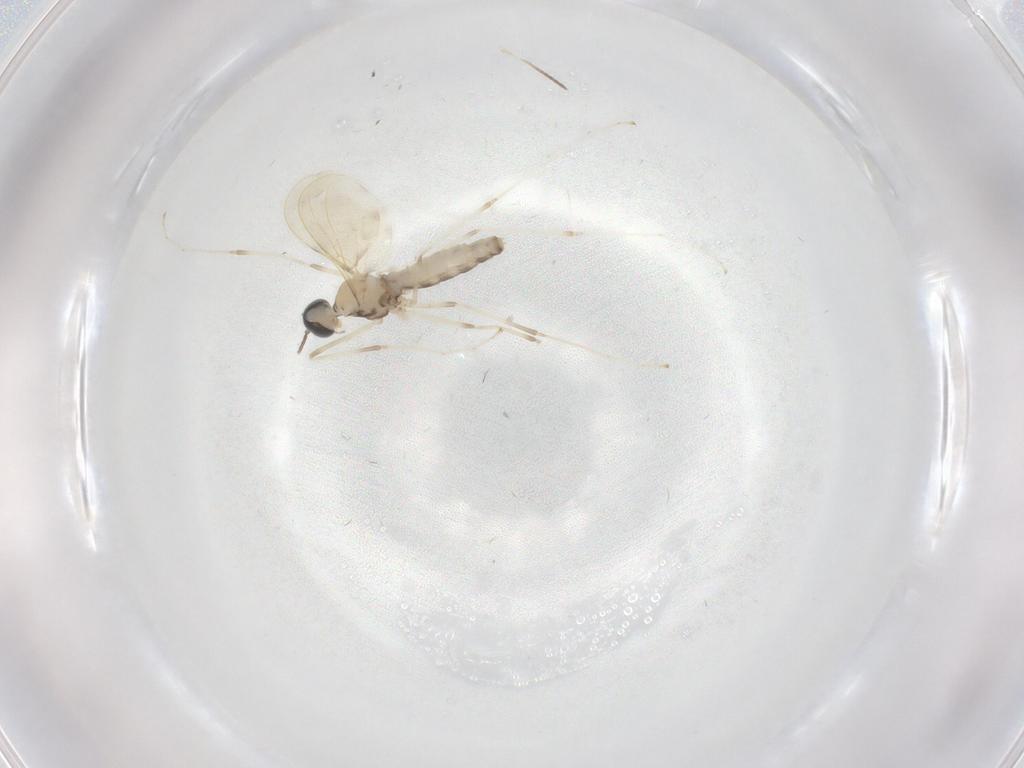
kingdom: Animalia
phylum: Arthropoda
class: Insecta
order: Diptera
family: Cecidomyiidae
